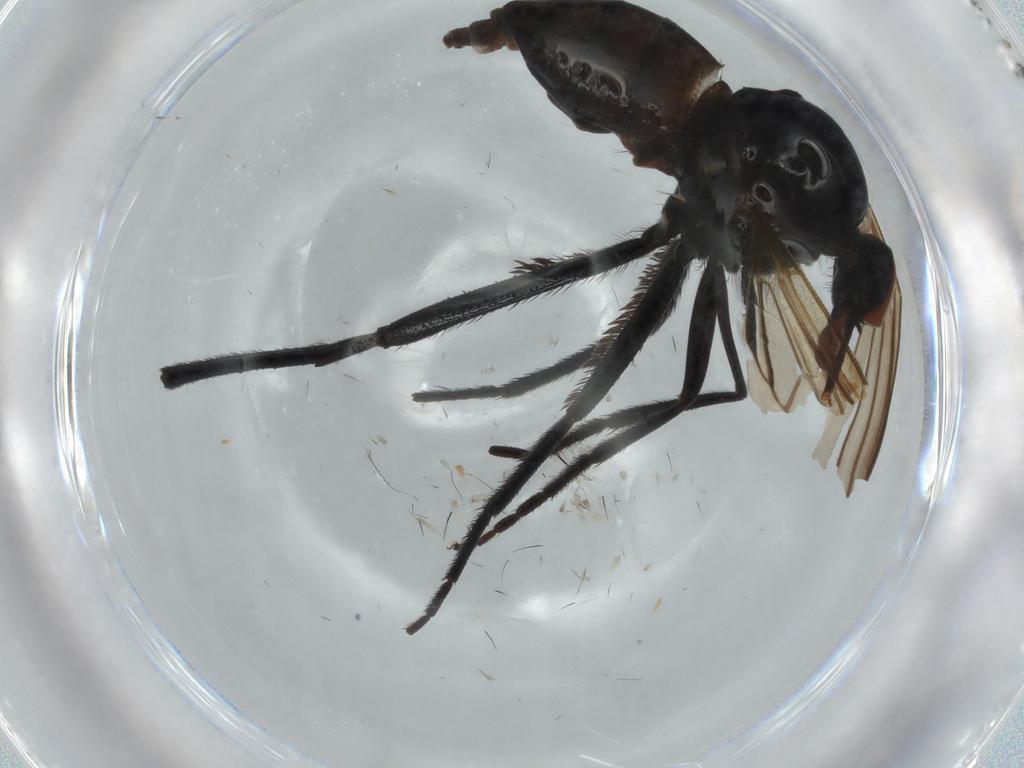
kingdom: Animalia
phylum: Arthropoda
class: Insecta
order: Diptera
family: Empididae
